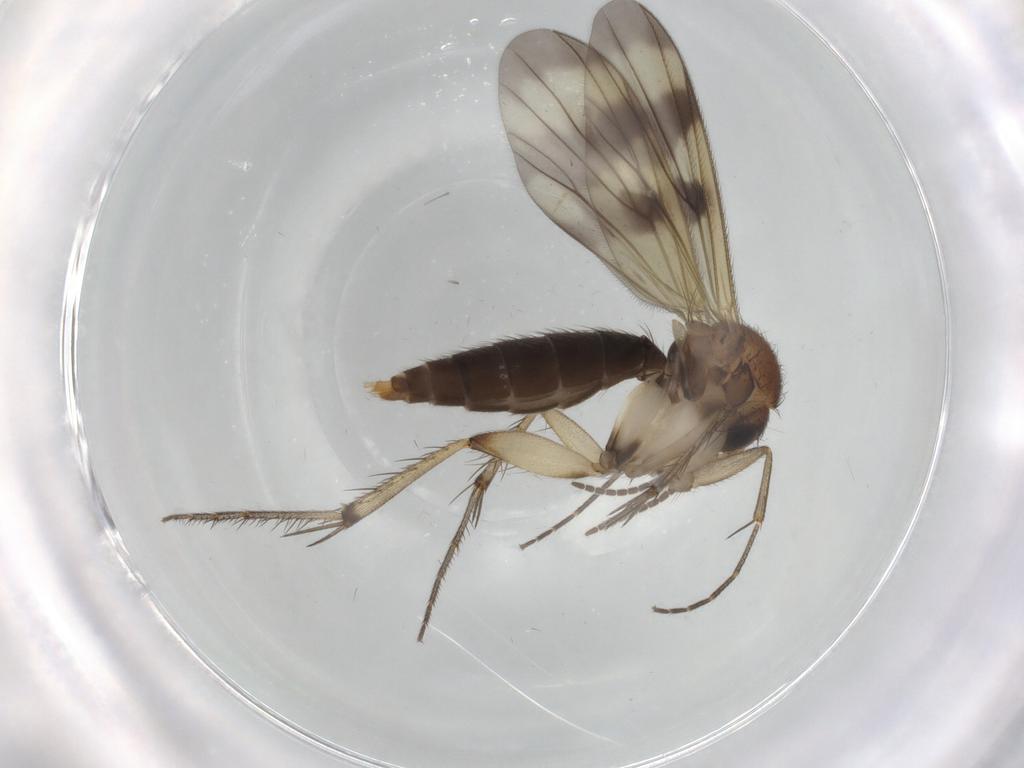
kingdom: Animalia
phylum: Arthropoda
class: Insecta
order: Diptera
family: Mycetophilidae
